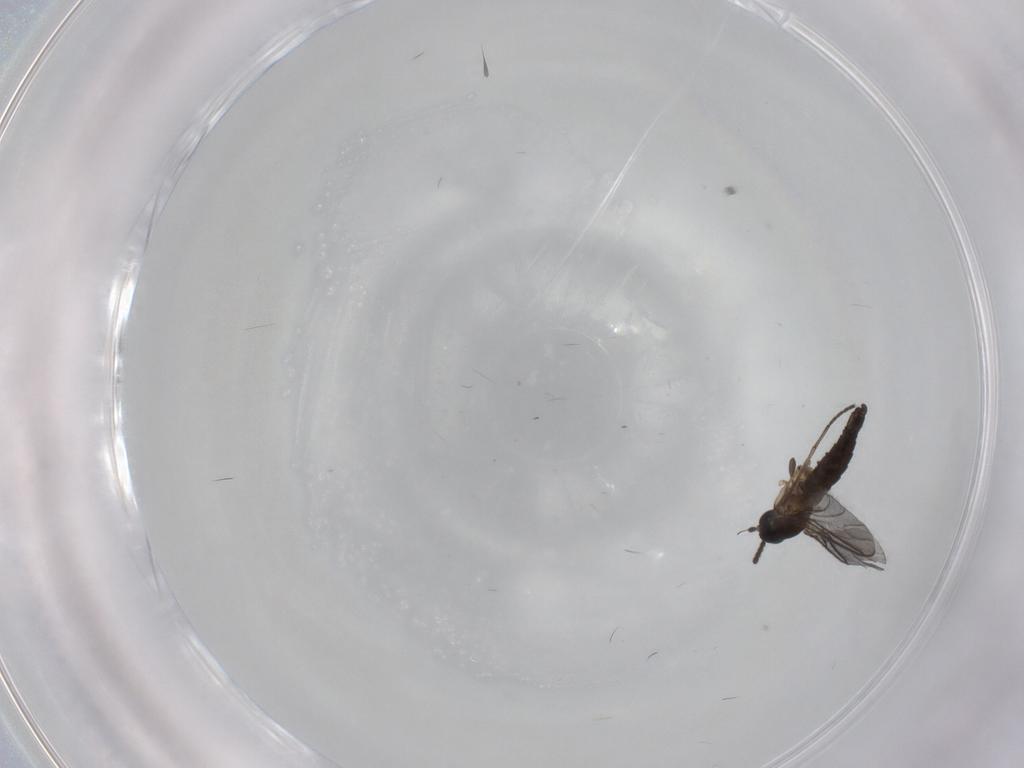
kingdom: Animalia
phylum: Arthropoda
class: Insecta
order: Diptera
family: Sciaridae
